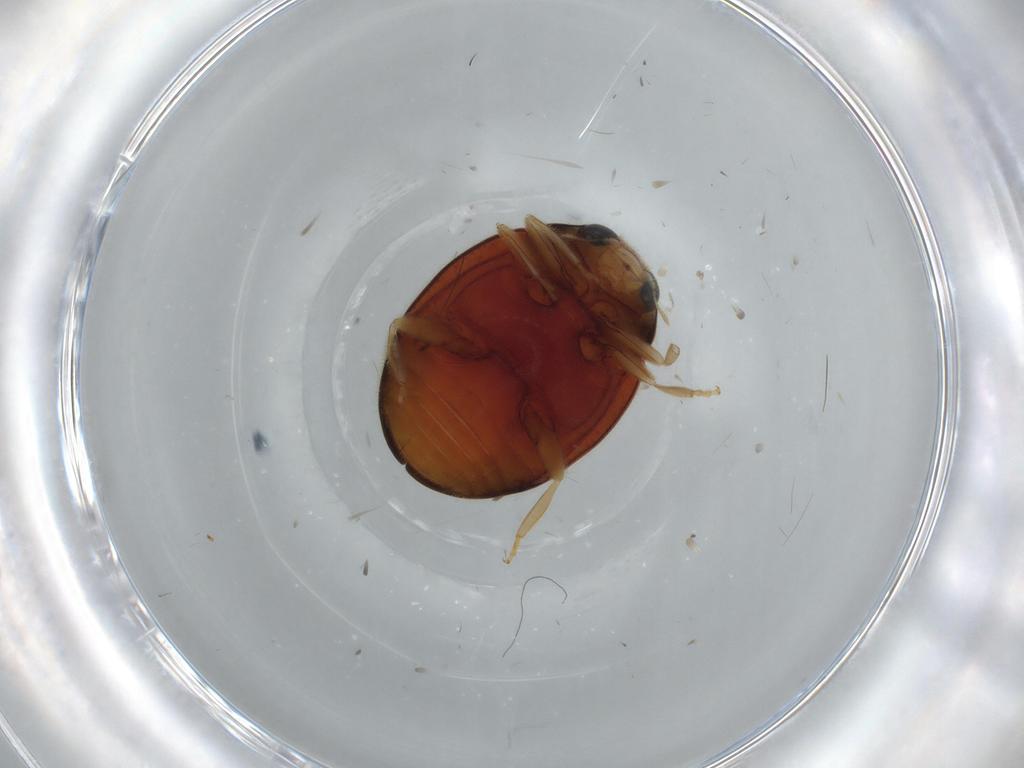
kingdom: Animalia
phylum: Arthropoda
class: Insecta
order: Coleoptera
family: Coccinellidae
